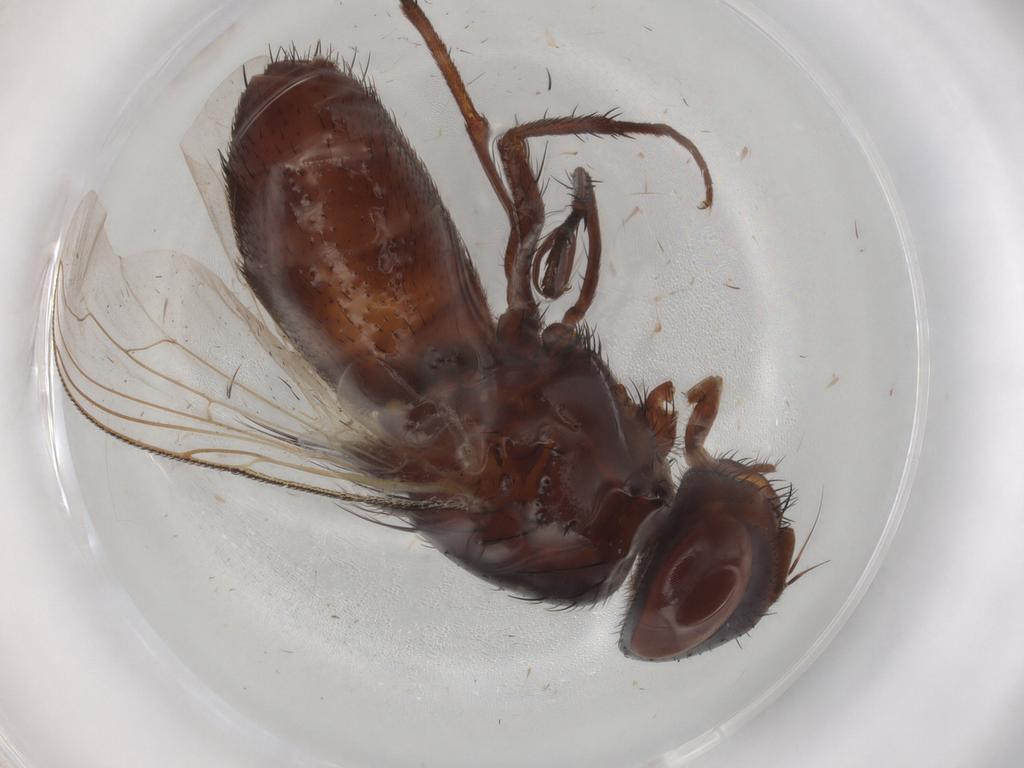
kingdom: Animalia
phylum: Arthropoda
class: Insecta
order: Diptera
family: Sarcophagidae
